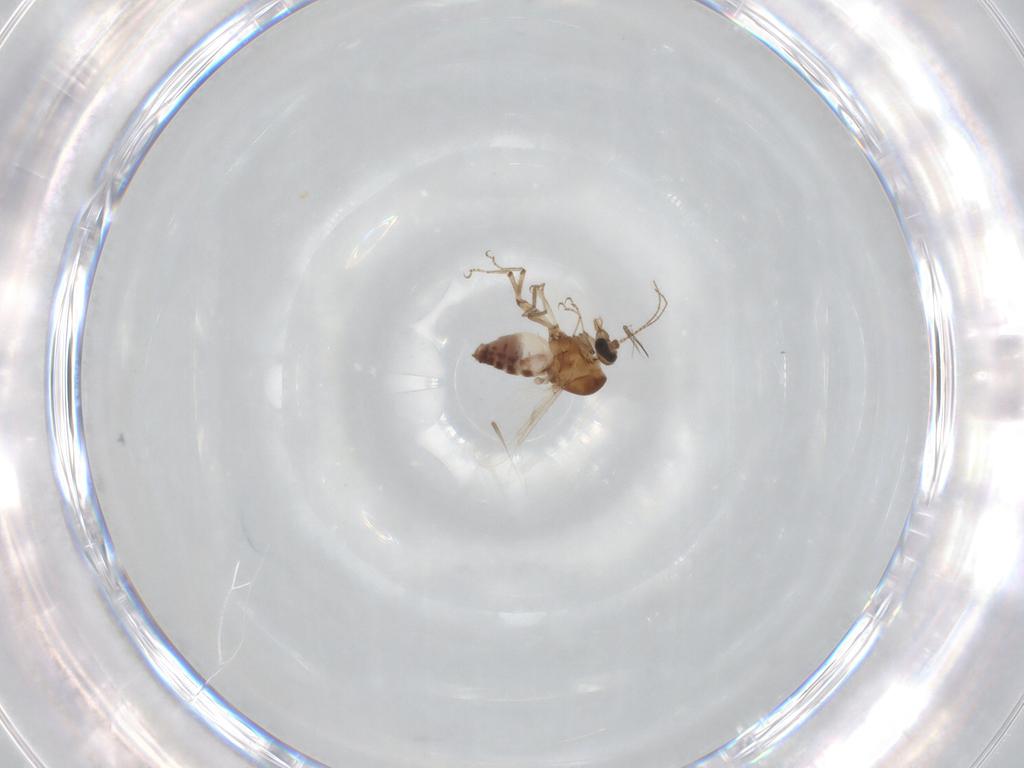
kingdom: Animalia
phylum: Arthropoda
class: Insecta
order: Diptera
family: Ceratopogonidae
